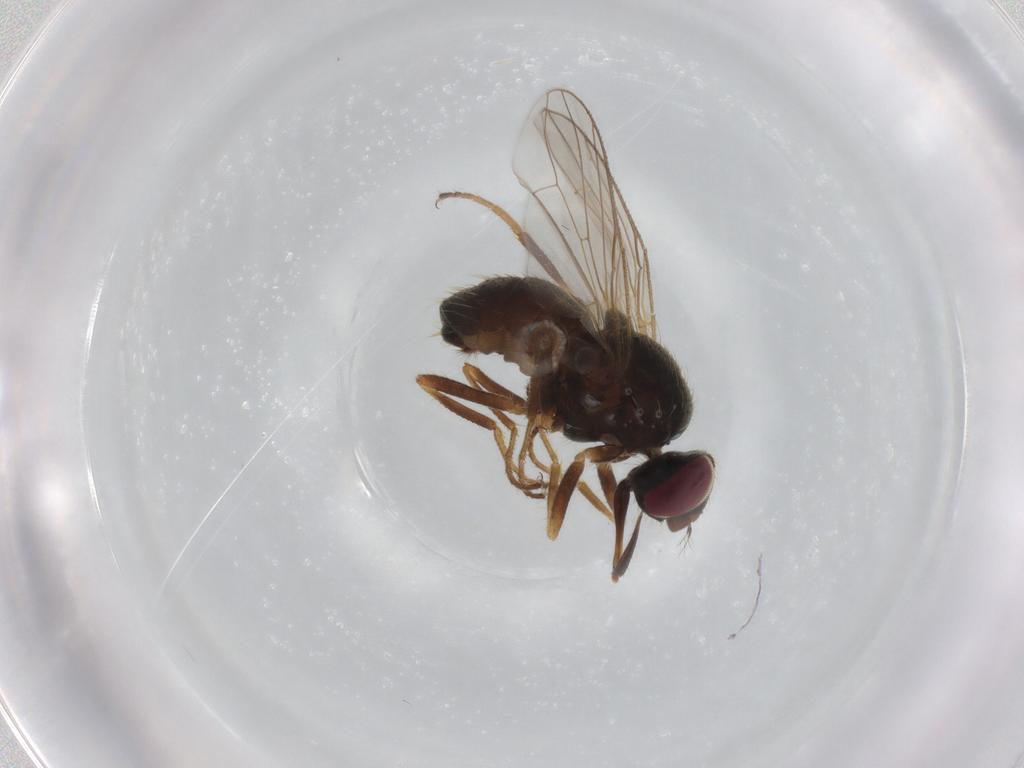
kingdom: Animalia
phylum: Arthropoda
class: Insecta
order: Diptera
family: Muscidae
